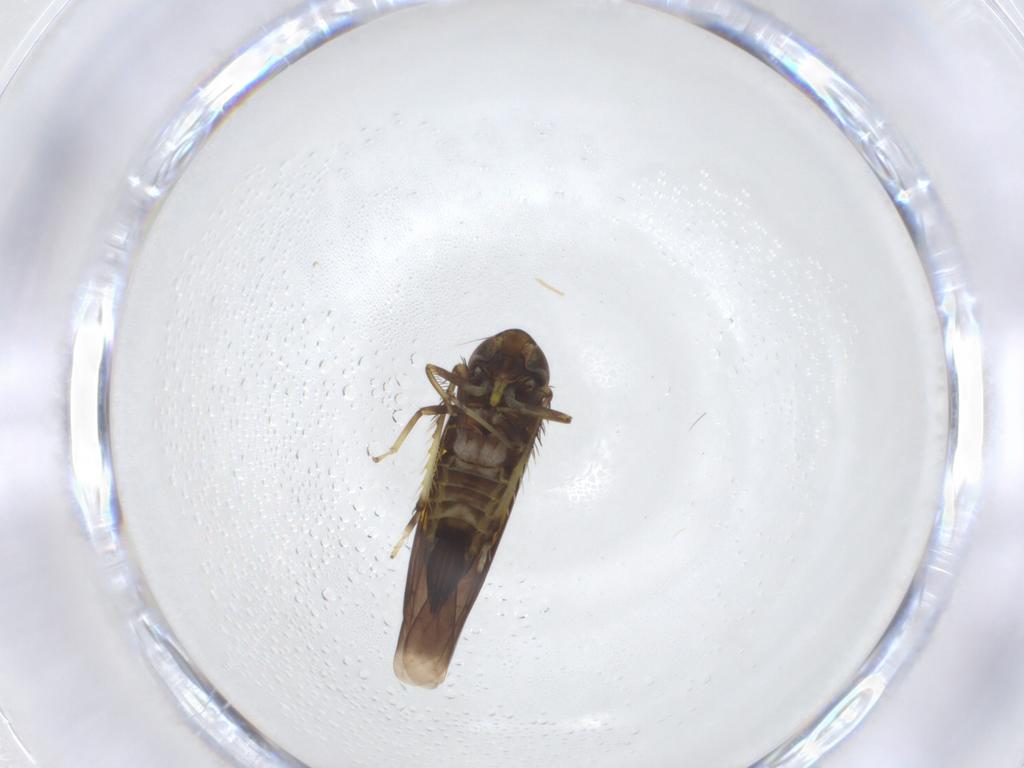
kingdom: Animalia
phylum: Arthropoda
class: Insecta
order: Hemiptera
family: Cicadellidae
